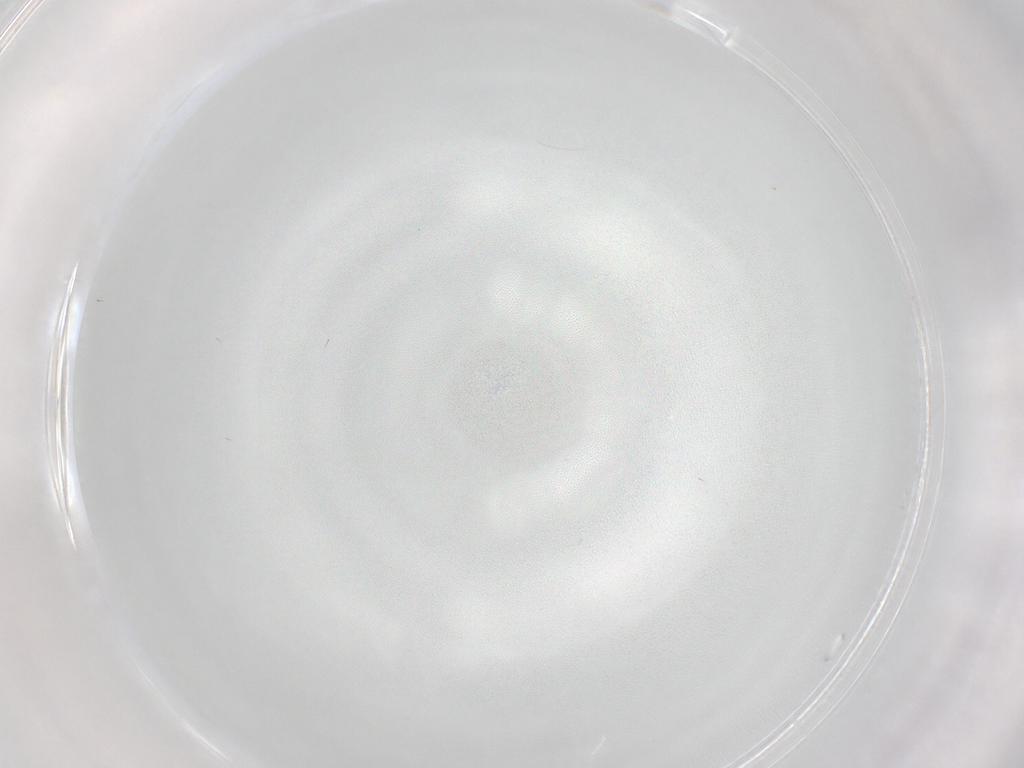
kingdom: Animalia
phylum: Arthropoda
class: Insecta
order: Diptera
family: Cecidomyiidae
